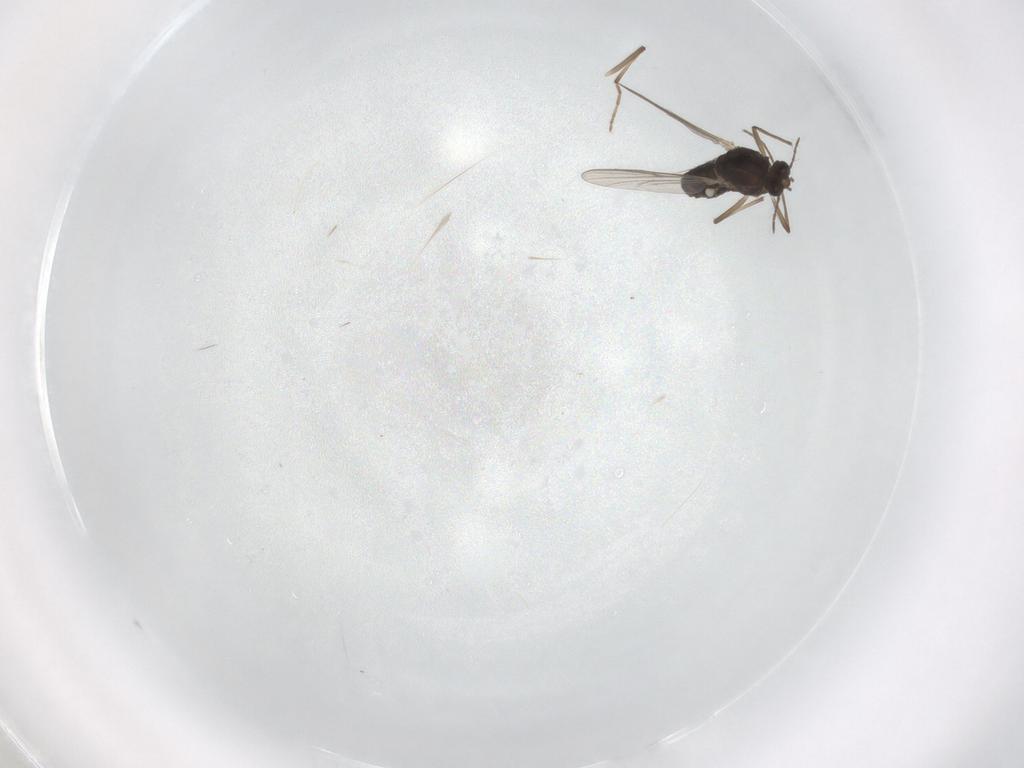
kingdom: Animalia
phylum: Arthropoda
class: Insecta
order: Diptera
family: Chironomidae
